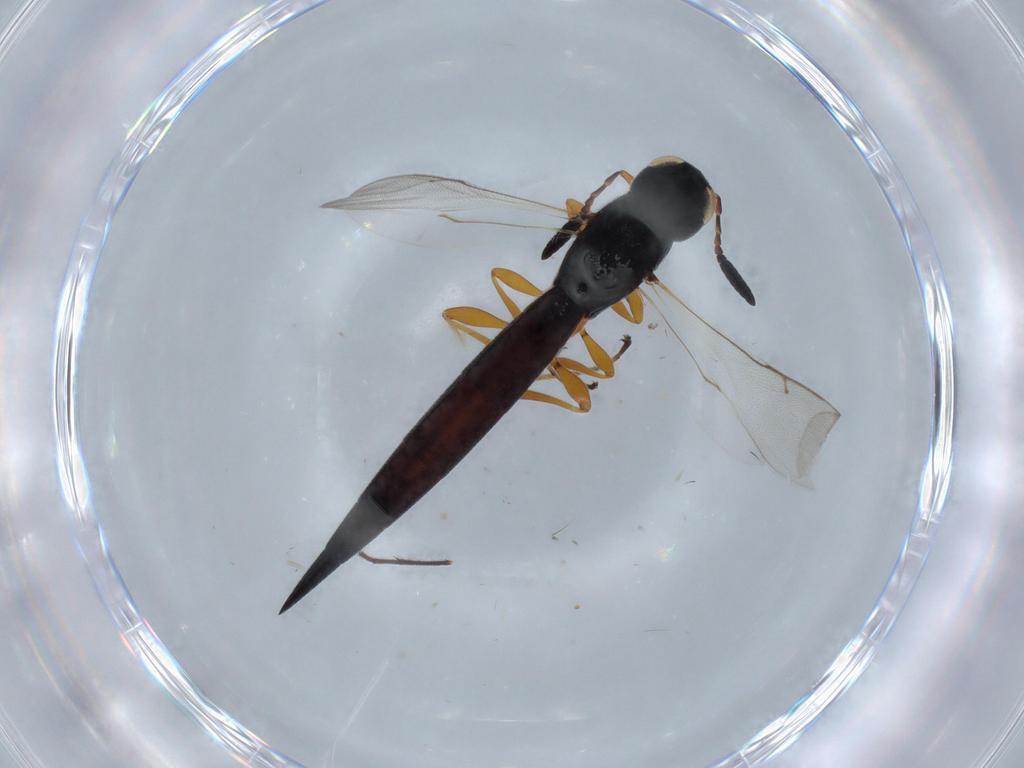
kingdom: Animalia
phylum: Arthropoda
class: Insecta
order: Hymenoptera
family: Scelionidae
